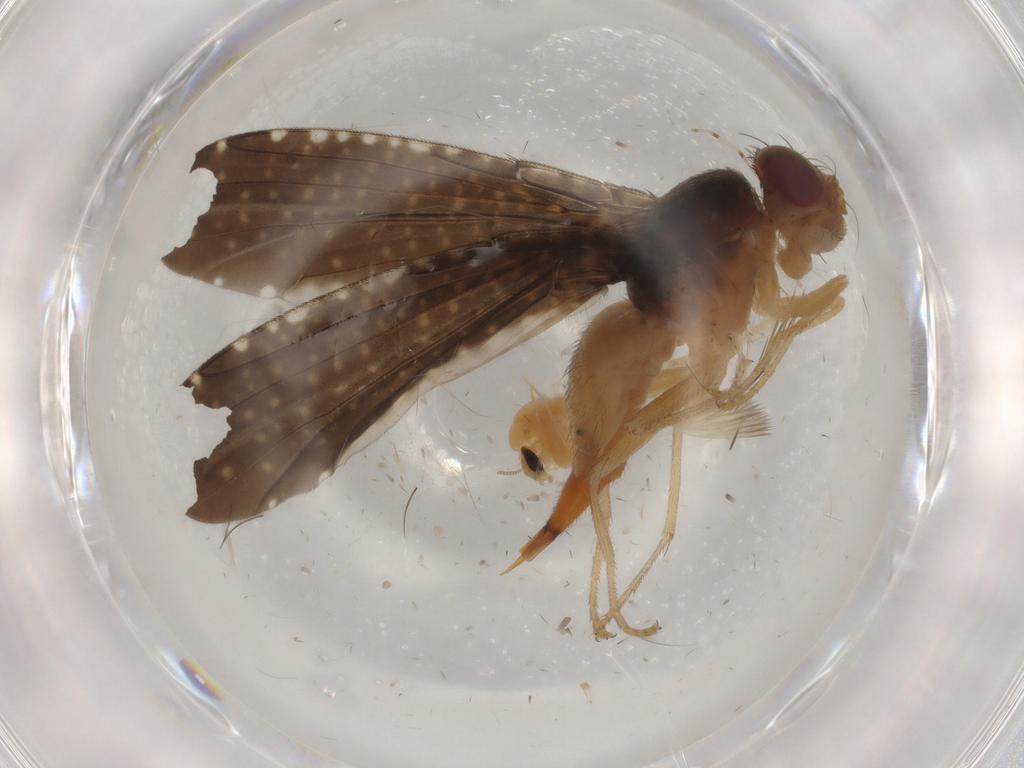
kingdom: Animalia
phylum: Arthropoda
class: Insecta
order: Diptera
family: Tephritidae
